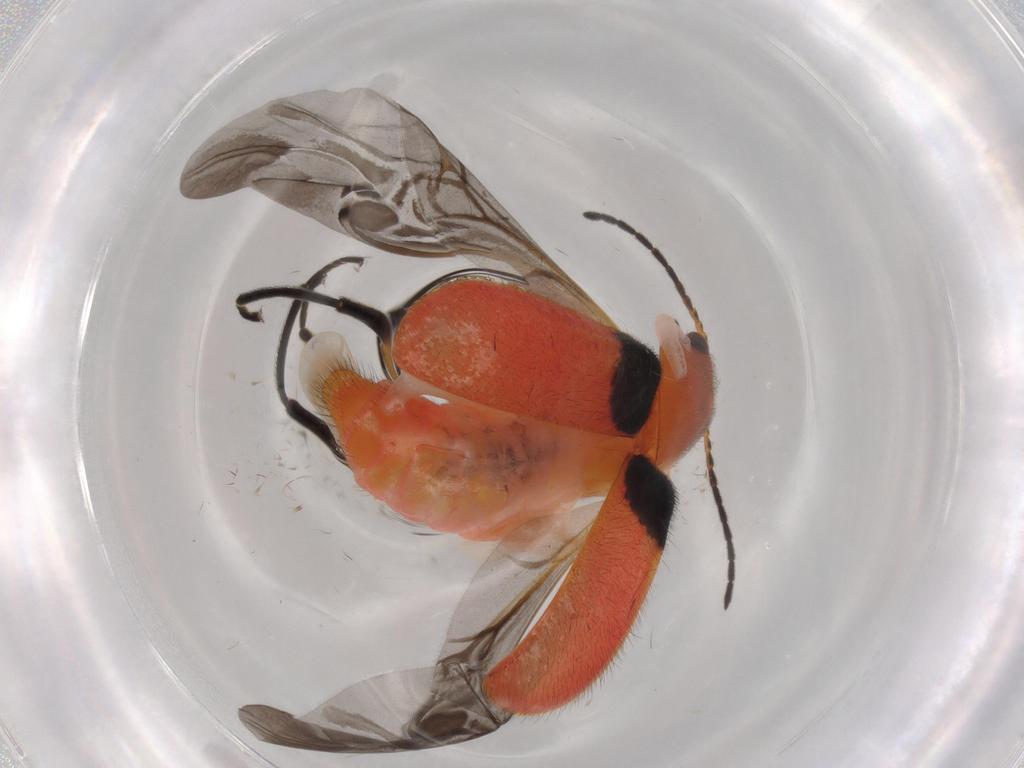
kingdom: Animalia
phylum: Arthropoda
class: Insecta
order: Coleoptera
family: Melyridae
